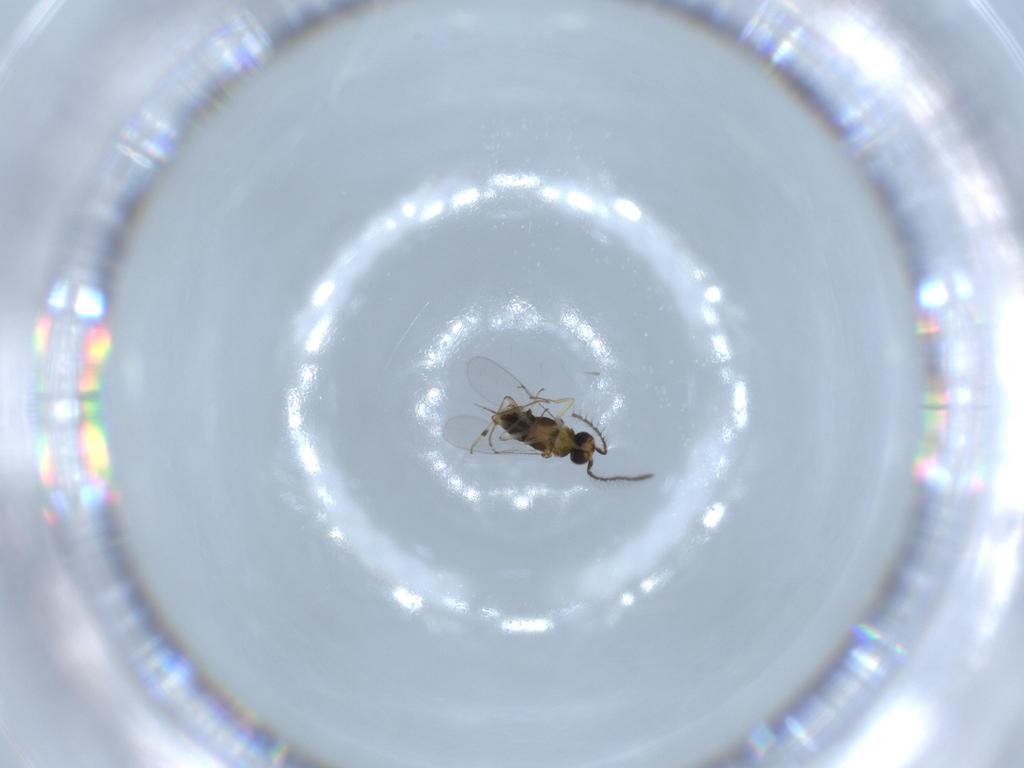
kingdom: Animalia
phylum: Arthropoda
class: Insecta
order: Hymenoptera
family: Encyrtidae
